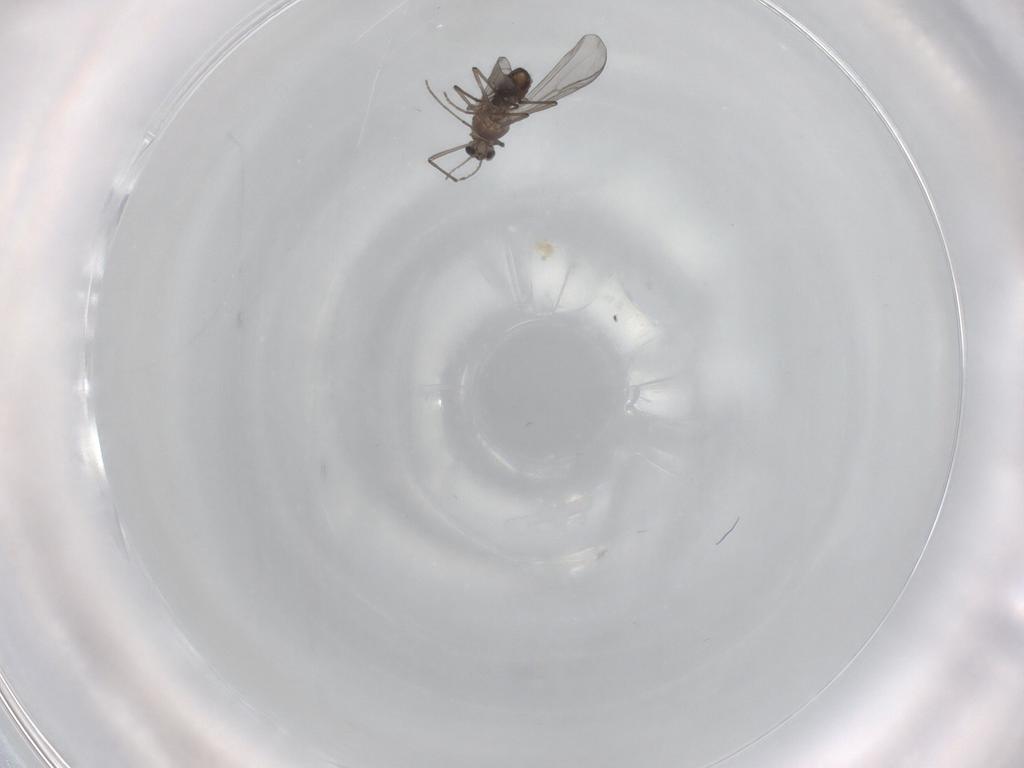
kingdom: Animalia
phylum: Arthropoda
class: Insecta
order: Diptera
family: Chironomidae
